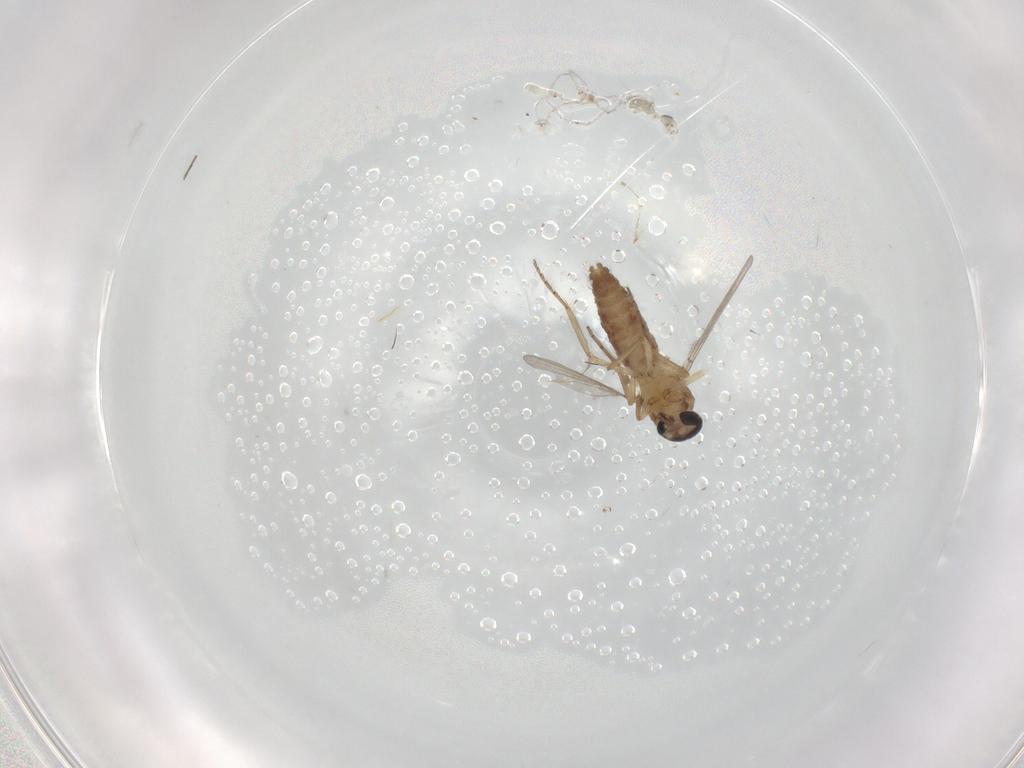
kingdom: Animalia
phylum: Arthropoda
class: Insecta
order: Diptera
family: Ceratopogonidae
